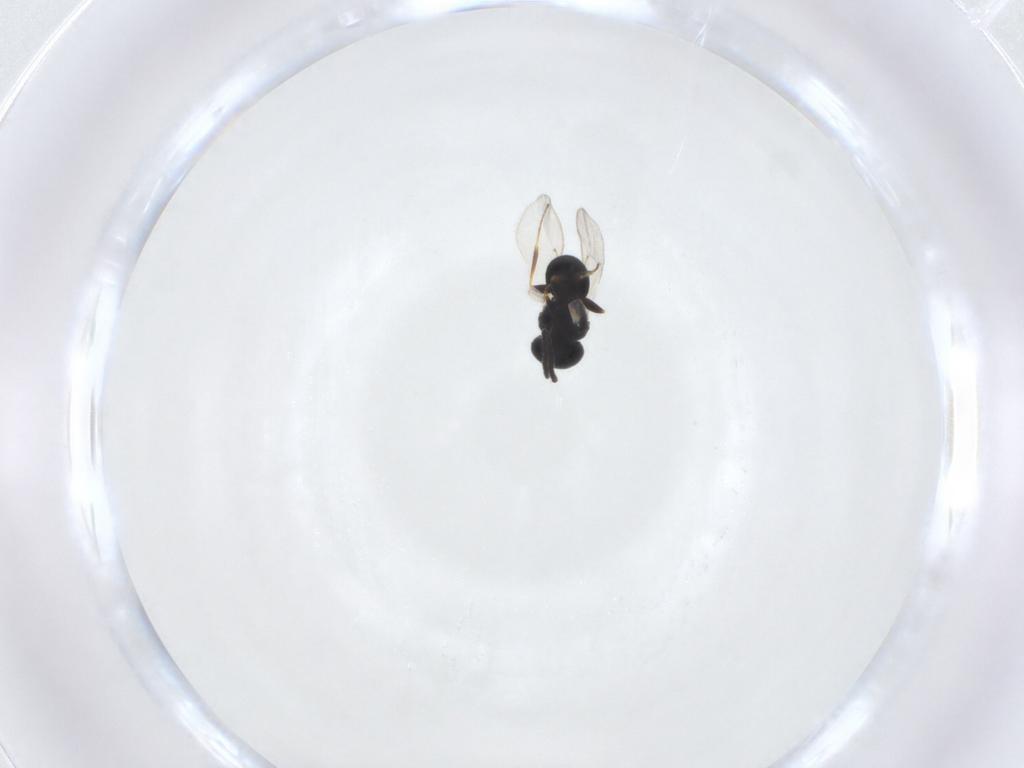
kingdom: Animalia
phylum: Arthropoda
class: Insecta
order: Hymenoptera
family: Scelionidae
